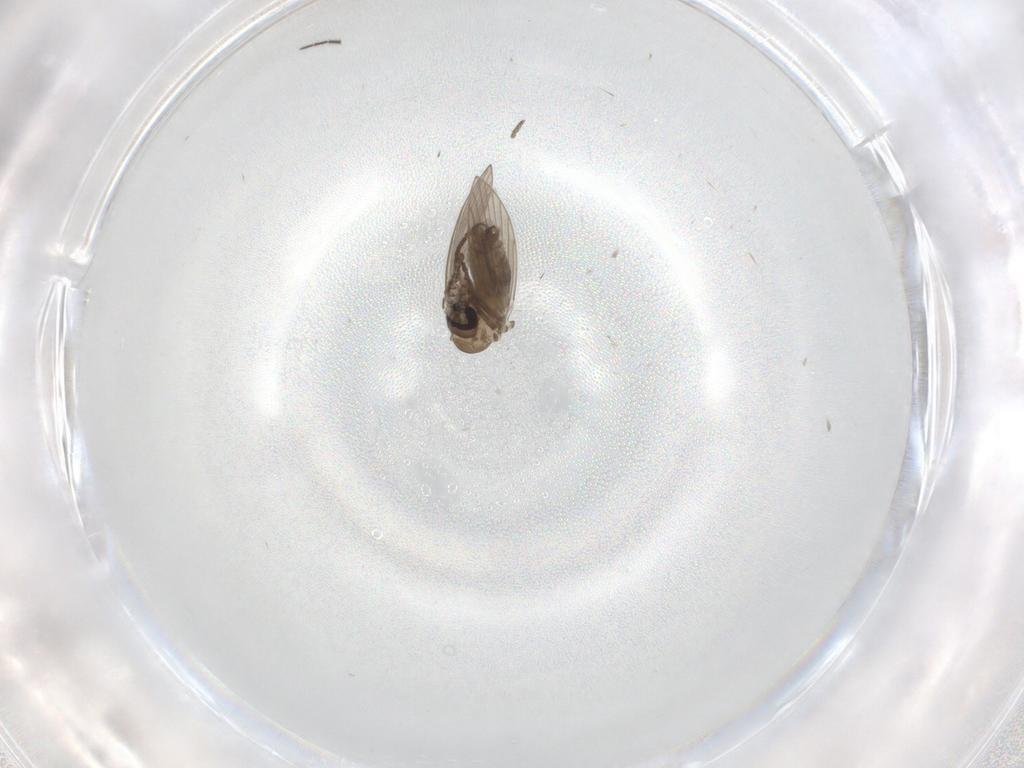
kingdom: Animalia
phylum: Arthropoda
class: Insecta
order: Diptera
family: Psychodidae
